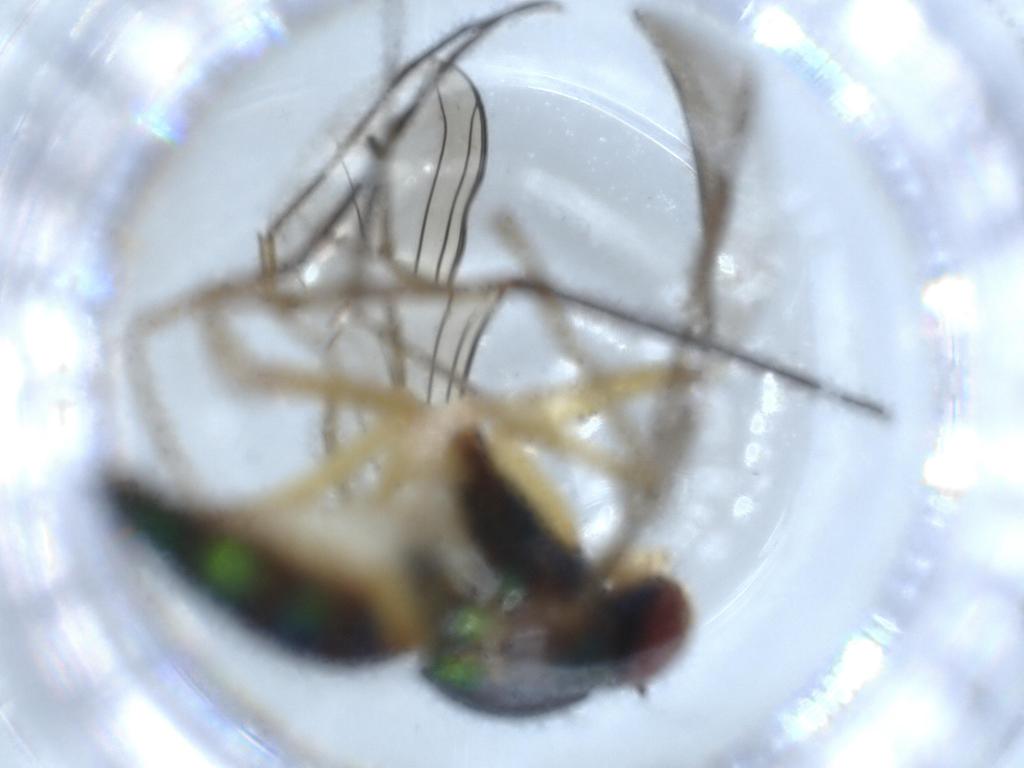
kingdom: Animalia
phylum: Arthropoda
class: Insecta
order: Diptera
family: Dolichopodidae
